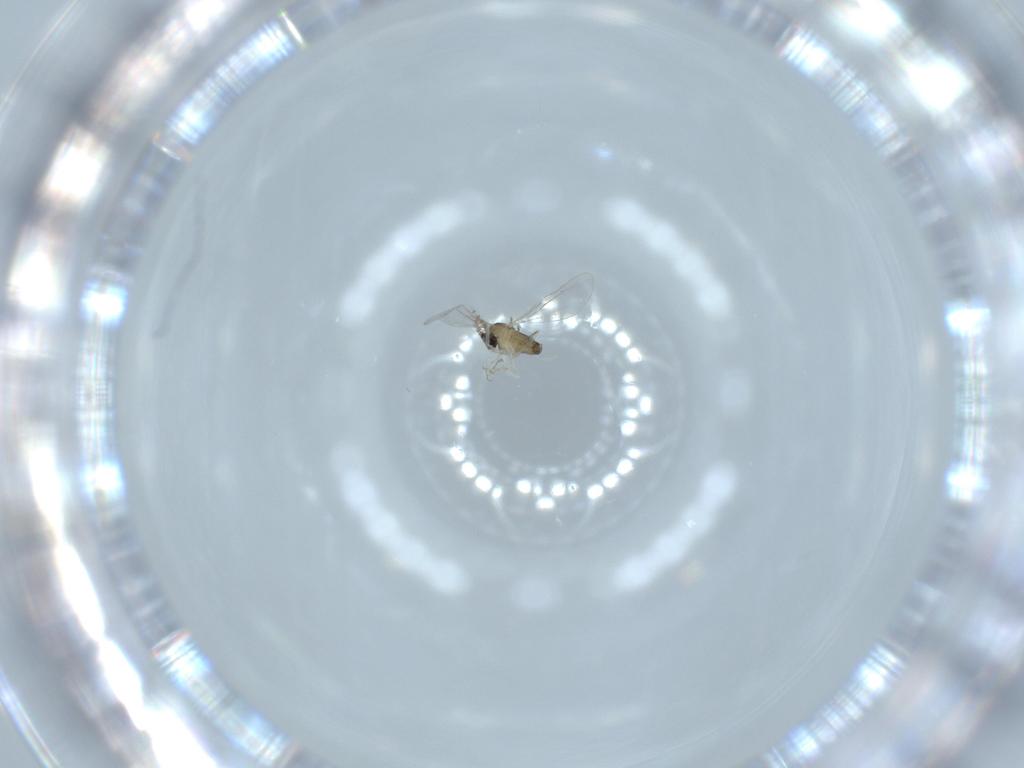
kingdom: Animalia
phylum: Arthropoda
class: Insecta
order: Diptera
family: Cecidomyiidae
